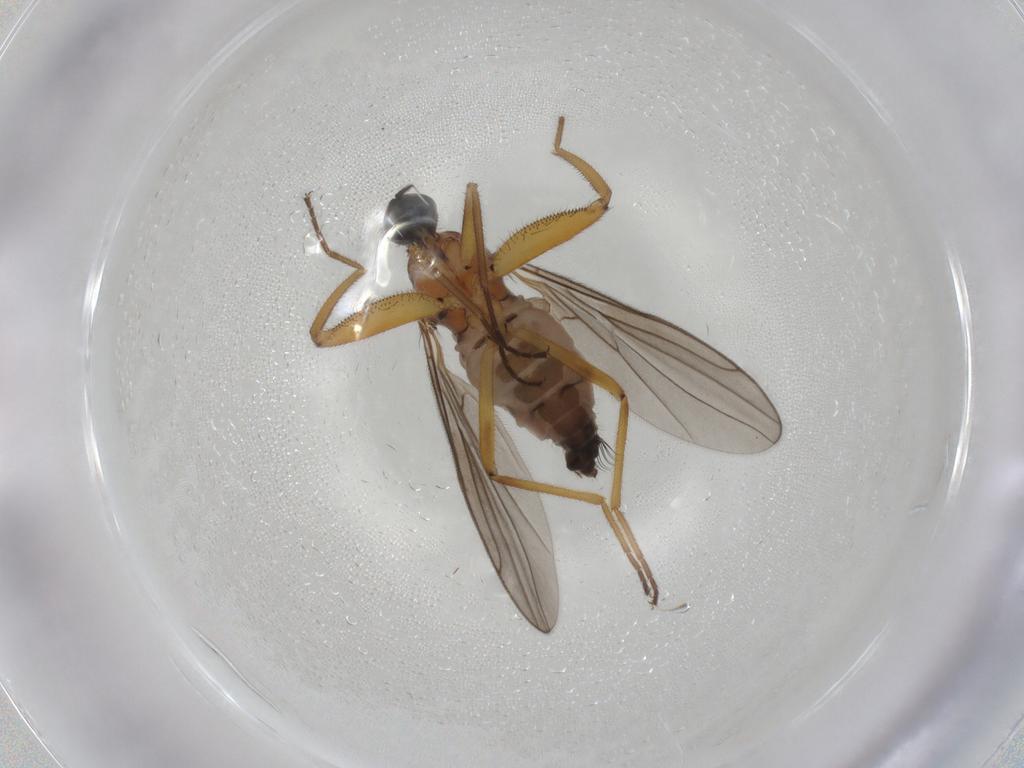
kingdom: Animalia
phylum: Arthropoda
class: Insecta
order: Diptera
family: Hybotidae
